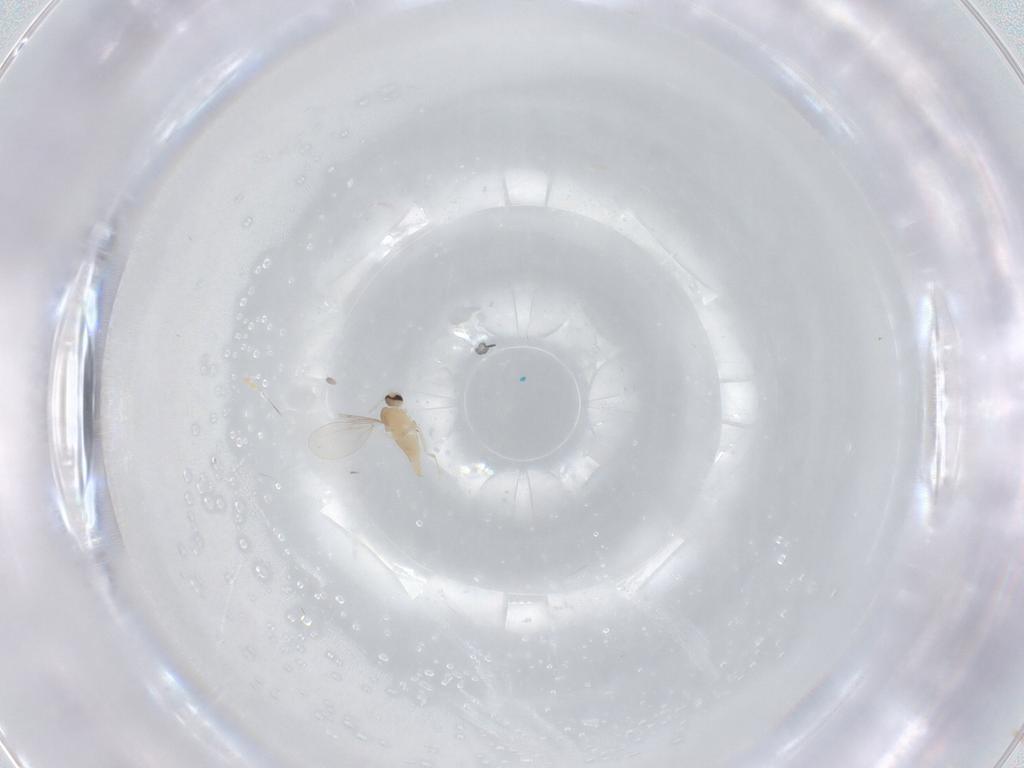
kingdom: Animalia
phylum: Arthropoda
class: Insecta
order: Diptera
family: Cecidomyiidae
